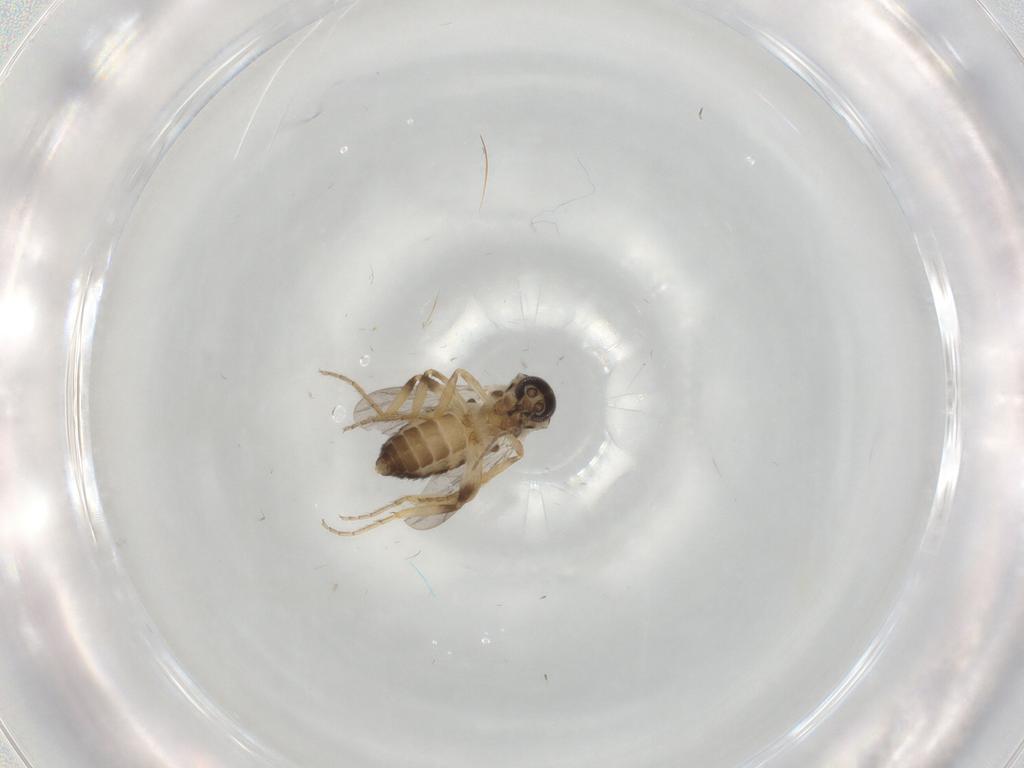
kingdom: Animalia
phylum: Arthropoda
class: Insecta
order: Diptera
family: Ceratopogonidae
